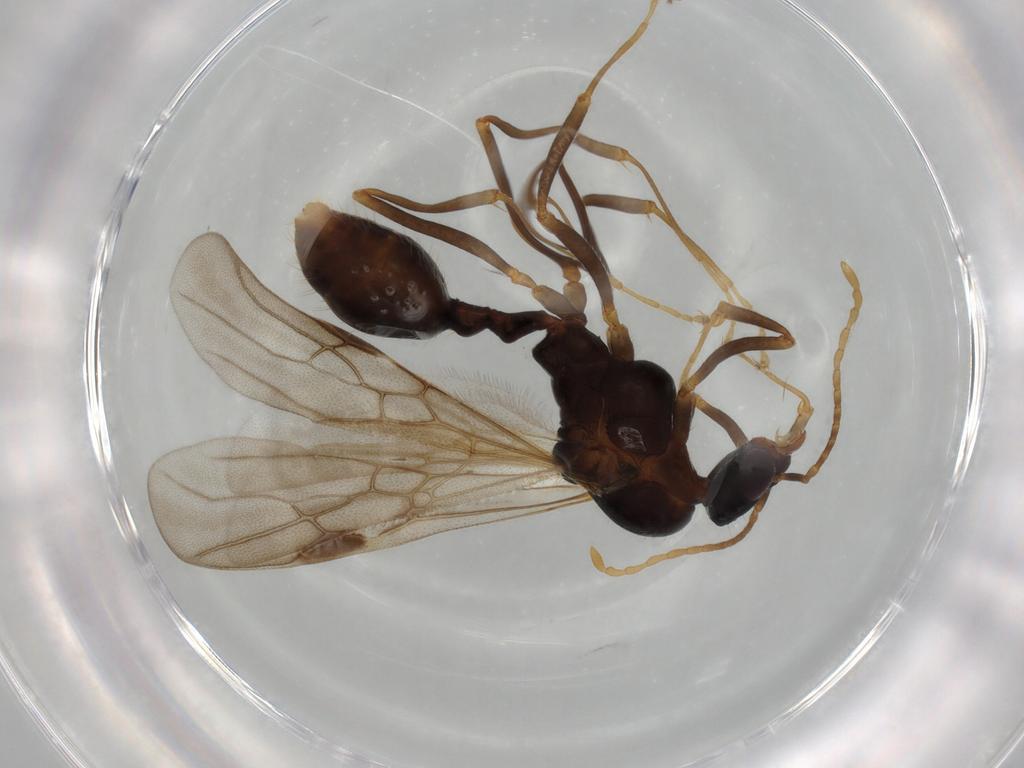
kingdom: Animalia
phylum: Arthropoda
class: Insecta
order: Hymenoptera
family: Formicidae
